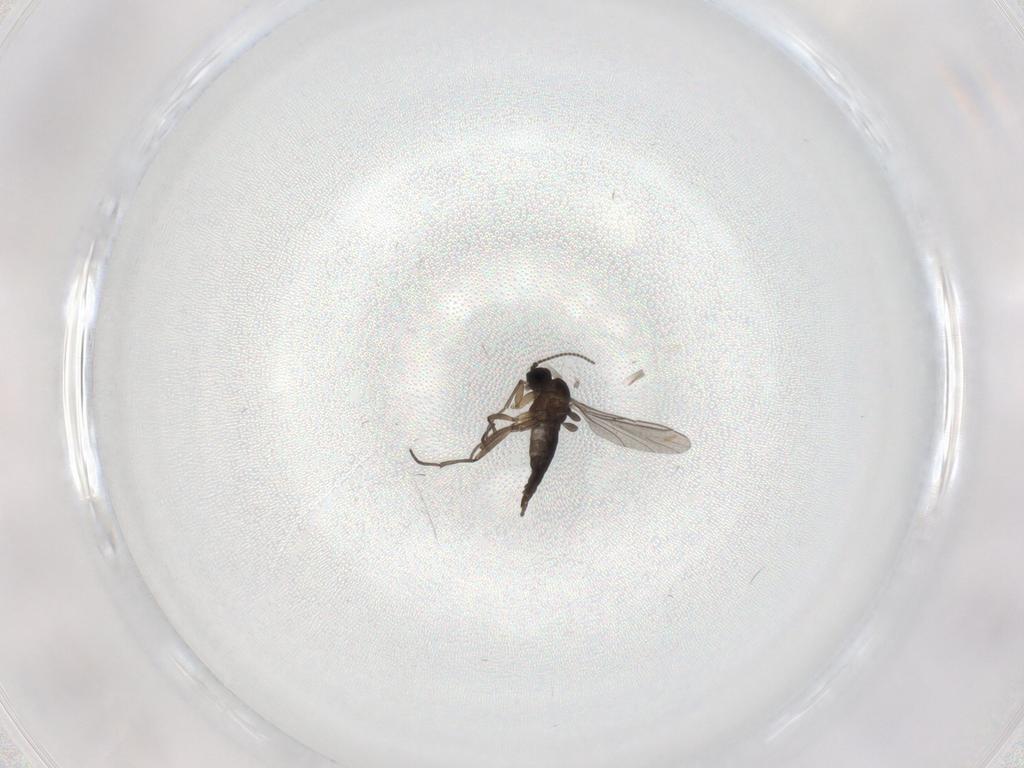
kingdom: Animalia
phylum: Arthropoda
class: Insecta
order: Diptera
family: Sciaridae
